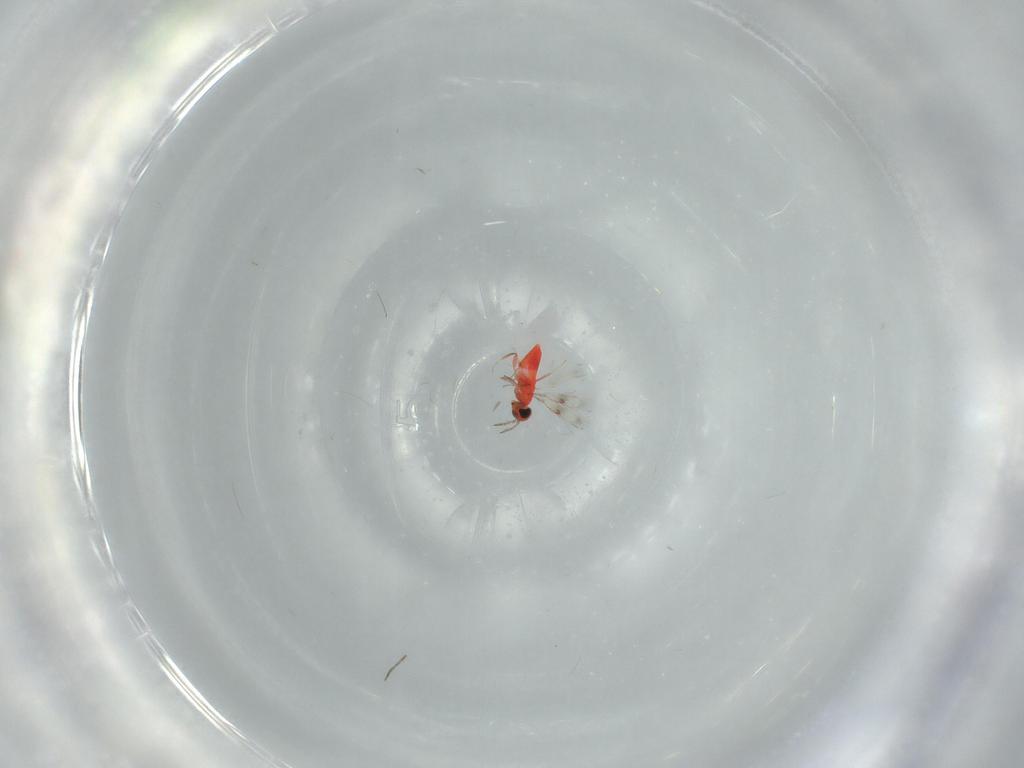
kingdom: Animalia
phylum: Arthropoda
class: Insecta
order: Hymenoptera
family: Trichogrammatidae
